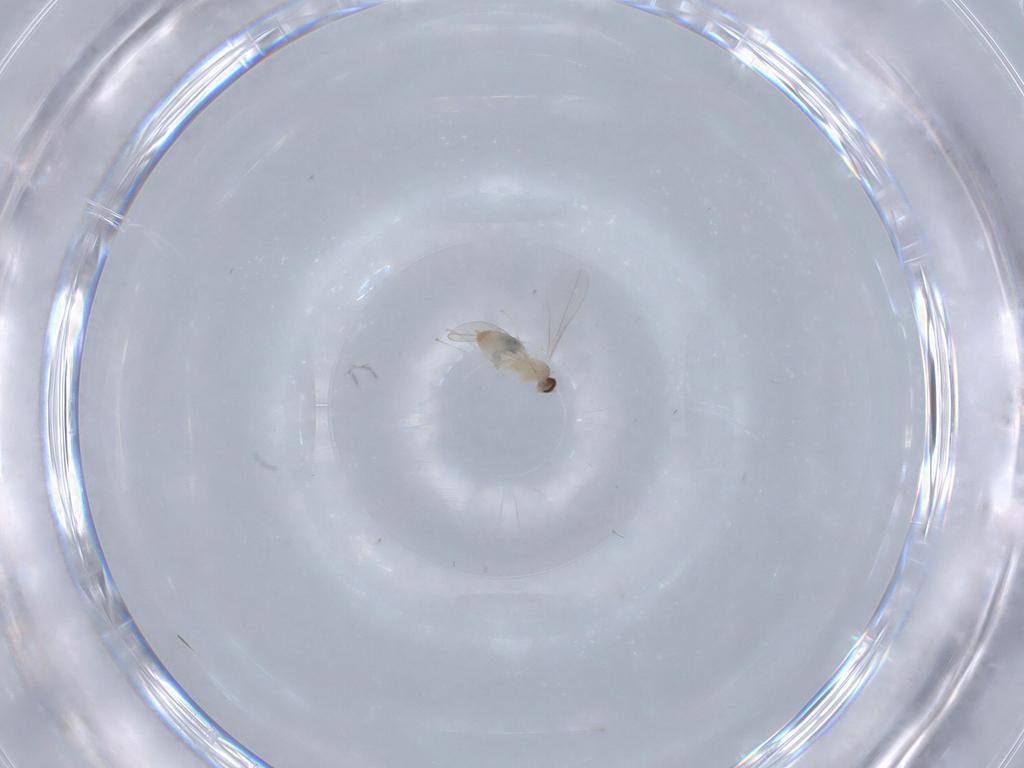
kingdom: Animalia
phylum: Arthropoda
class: Insecta
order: Diptera
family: Cecidomyiidae
